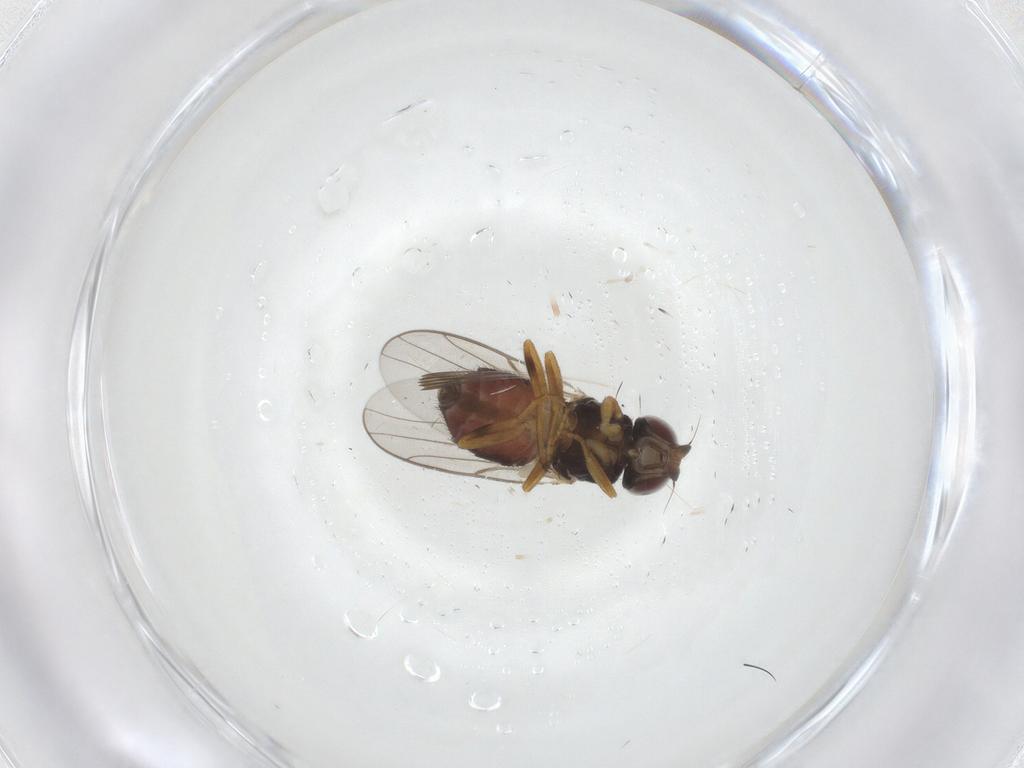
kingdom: Animalia
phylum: Arthropoda
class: Insecta
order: Diptera
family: Chloropidae
